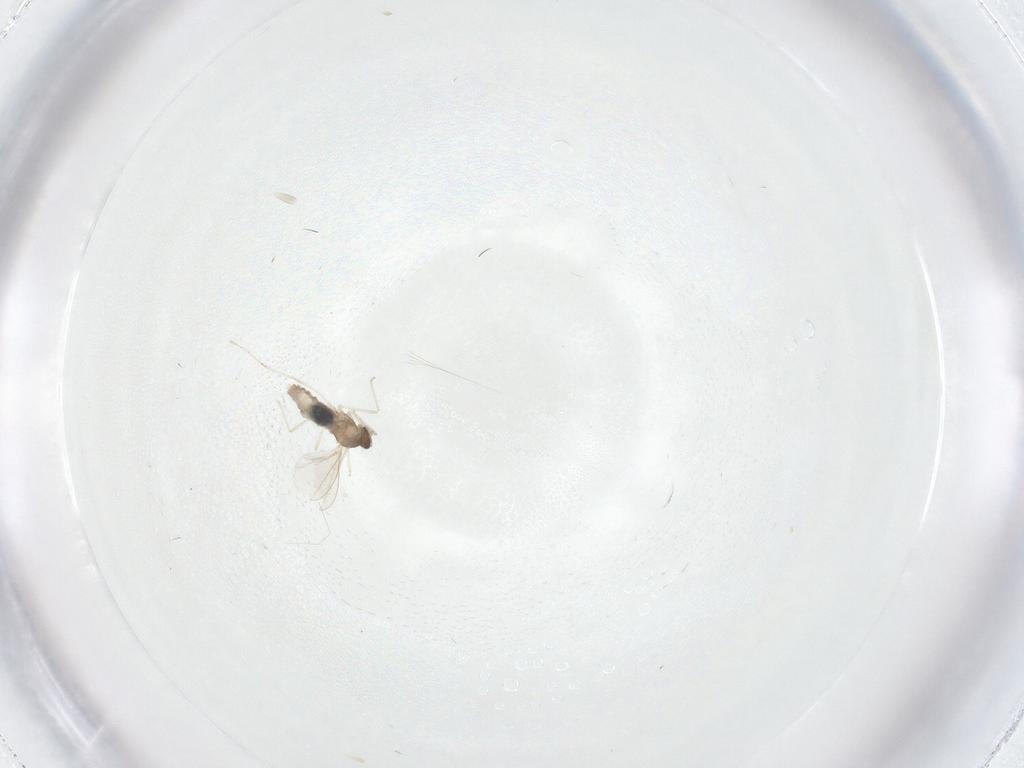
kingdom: Animalia
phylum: Arthropoda
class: Insecta
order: Diptera
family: Cecidomyiidae
